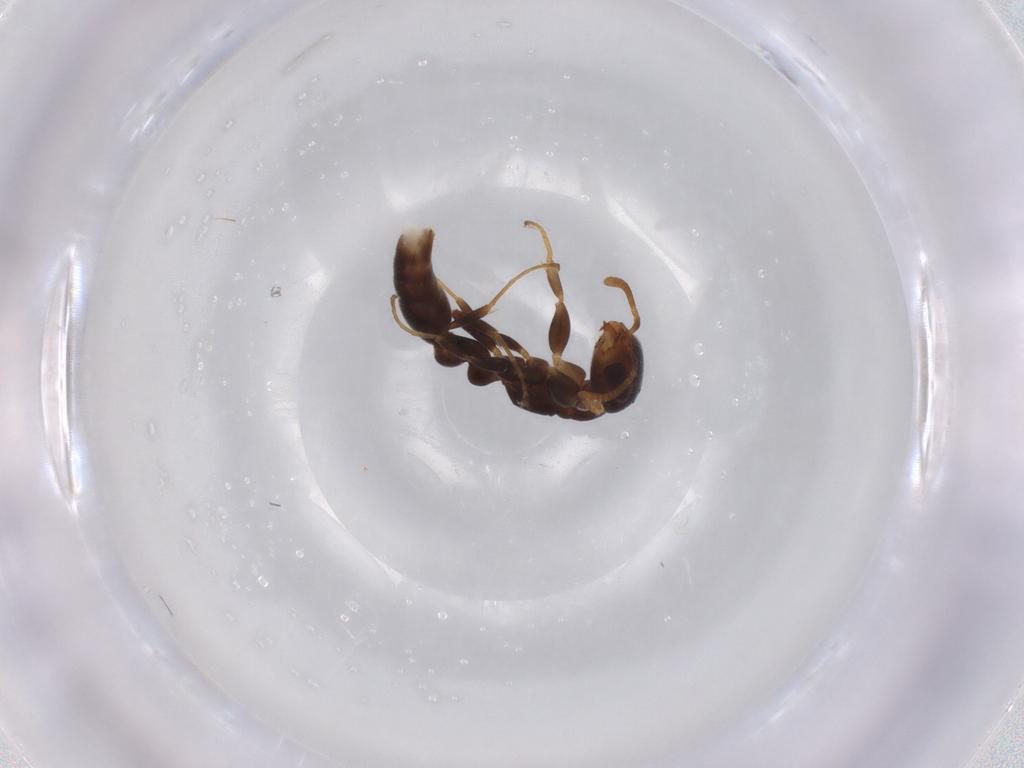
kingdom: Animalia
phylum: Arthropoda
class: Insecta
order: Hymenoptera
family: Formicidae
